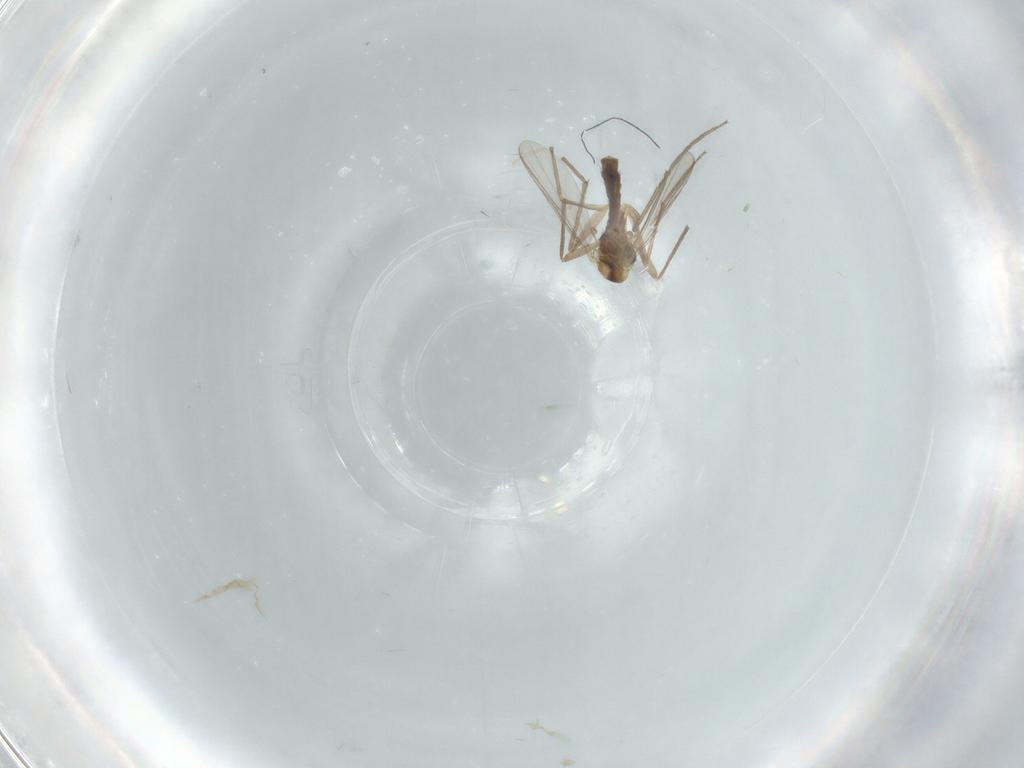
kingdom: Animalia
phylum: Arthropoda
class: Insecta
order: Diptera
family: Chironomidae
